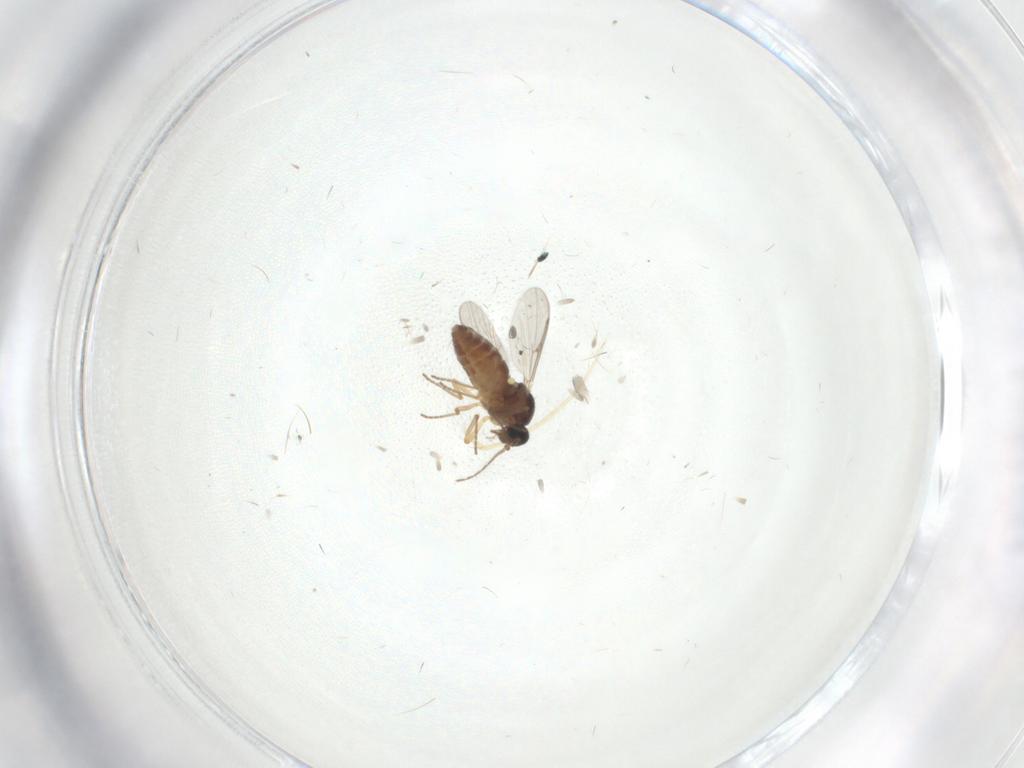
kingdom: Animalia
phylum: Arthropoda
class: Insecta
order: Diptera
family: Ceratopogonidae
